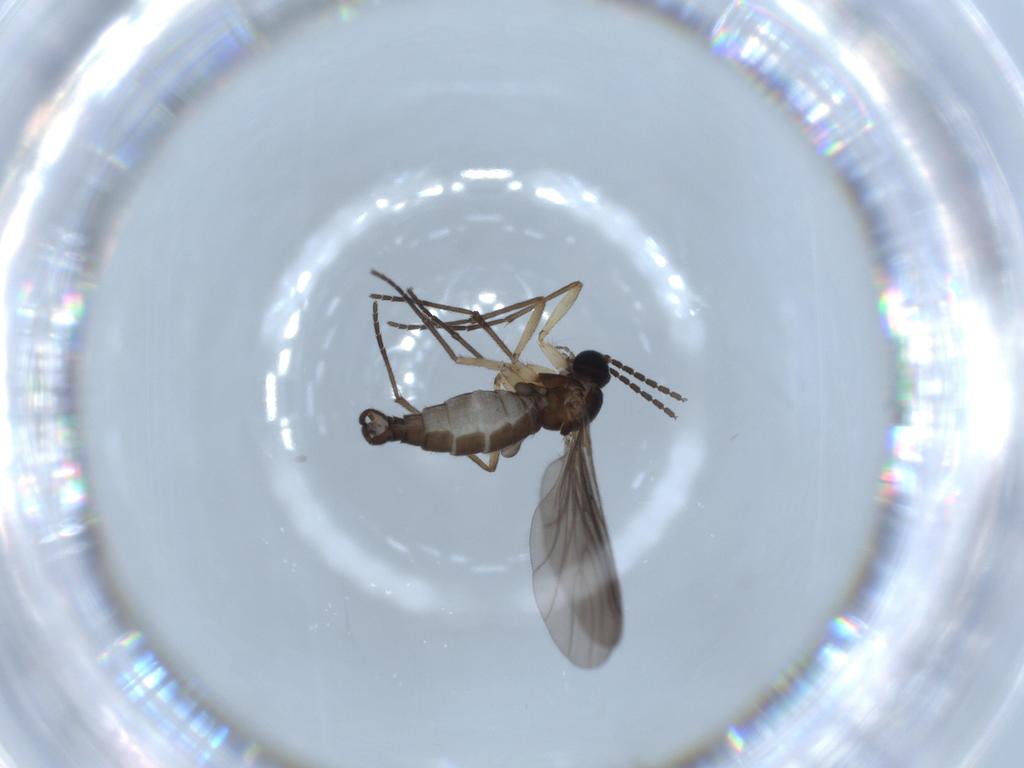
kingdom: Animalia
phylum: Arthropoda
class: Insecta
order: Diptera
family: Sciaridae
